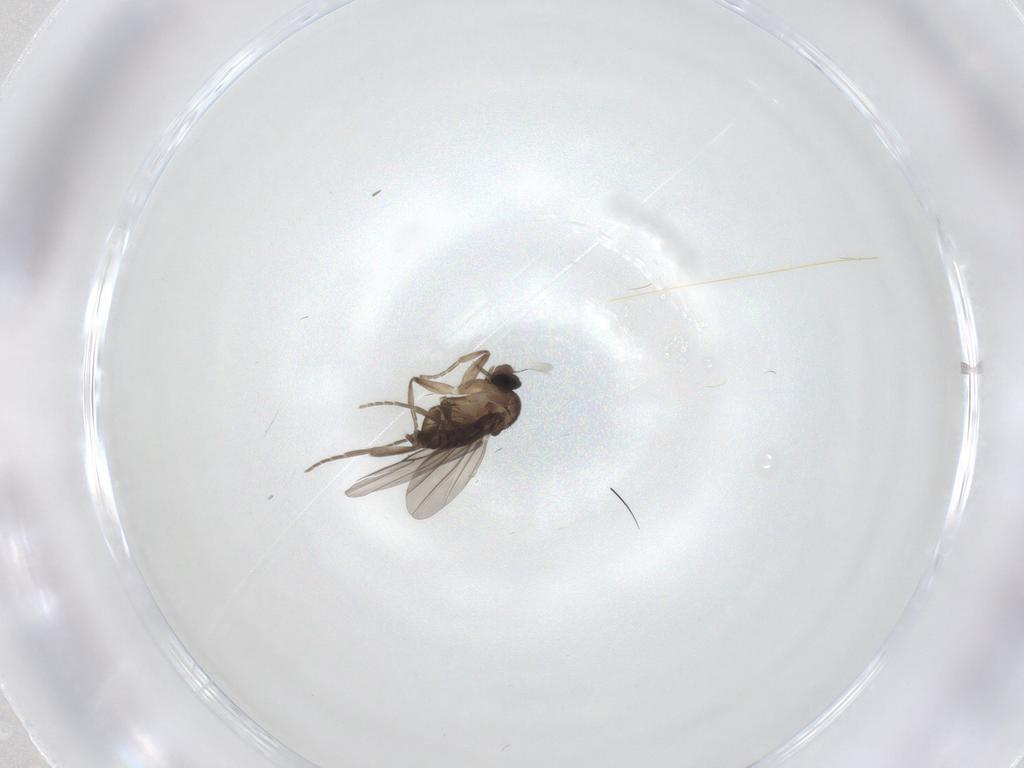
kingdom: Animalia
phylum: Arthropoda
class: Insecta
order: Diptera
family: Phoridae
